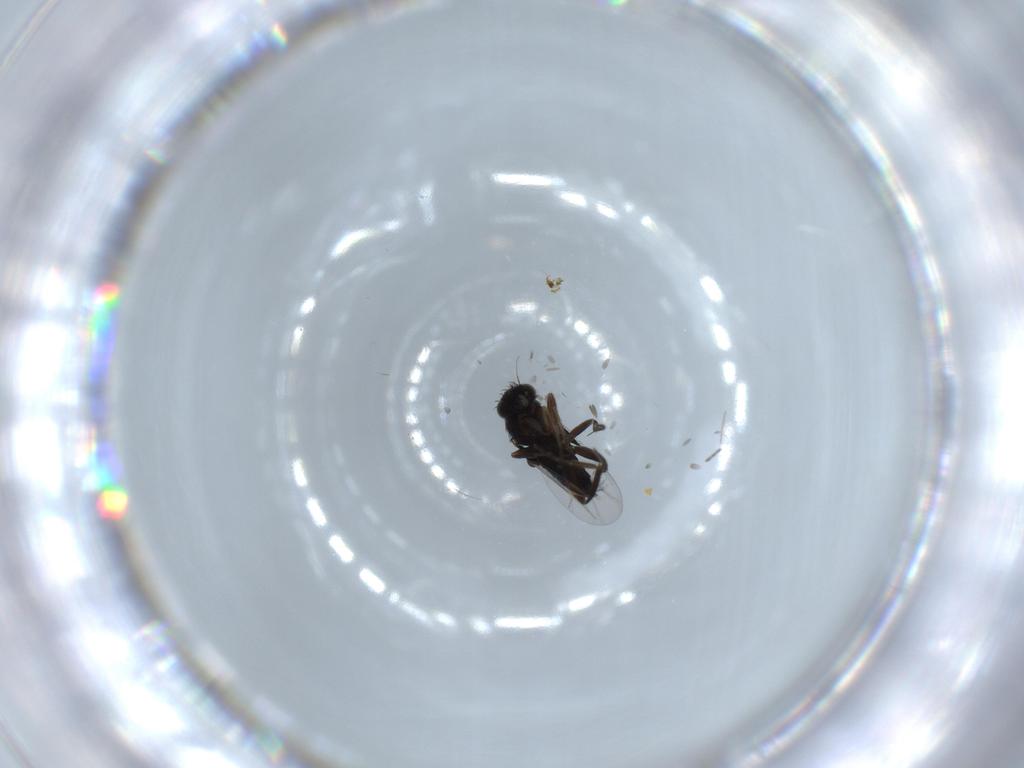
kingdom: Animalia
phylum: Arthropoda
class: Insecta
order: Diptera
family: Phoridae
